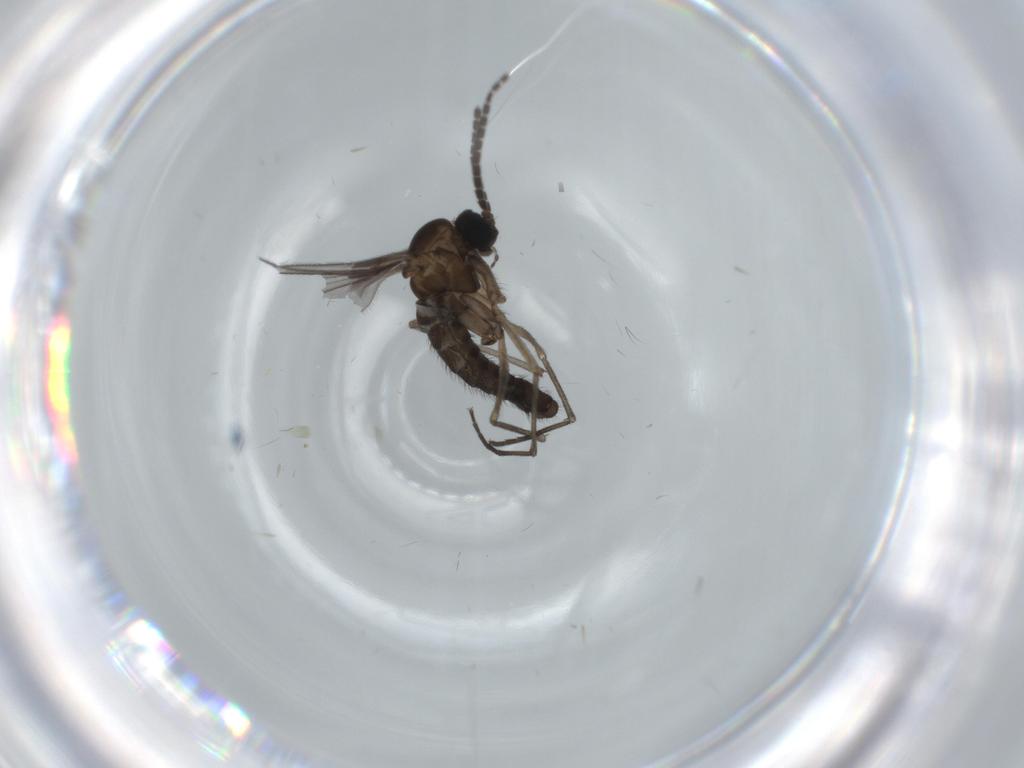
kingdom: Animalia
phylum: Arthropoda
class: Insecta
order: Diptera
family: Sciaridae
